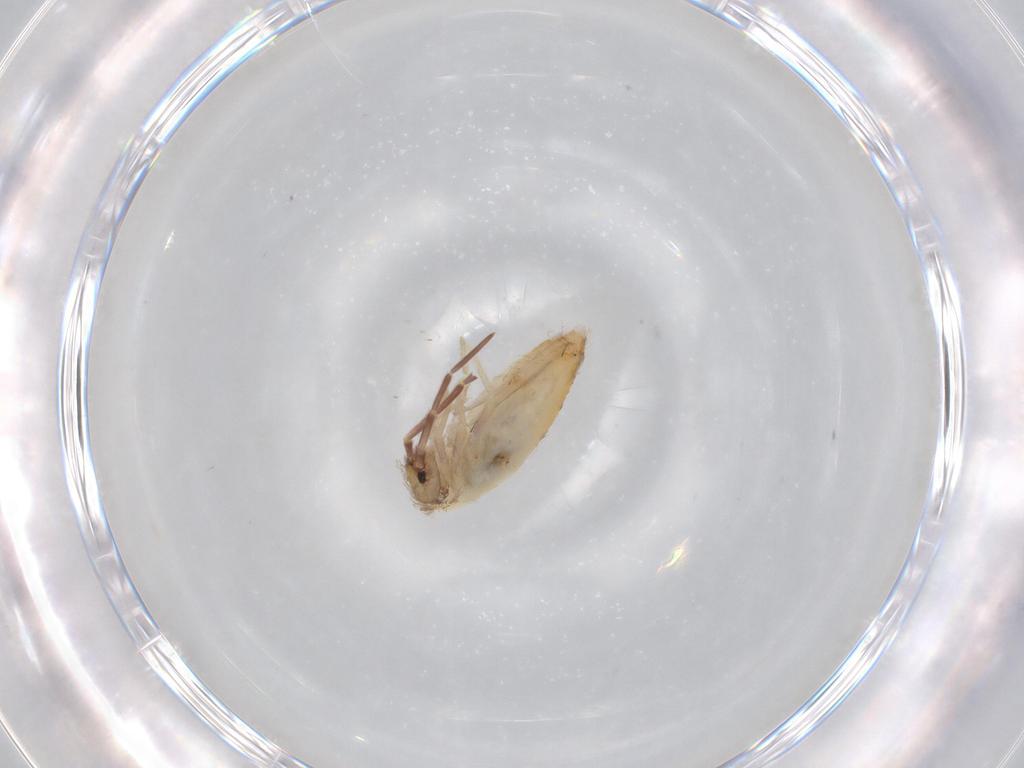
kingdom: Animalia
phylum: Arthropoda
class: Collembola
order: Entomobryomorpha
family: Entomobryidae
